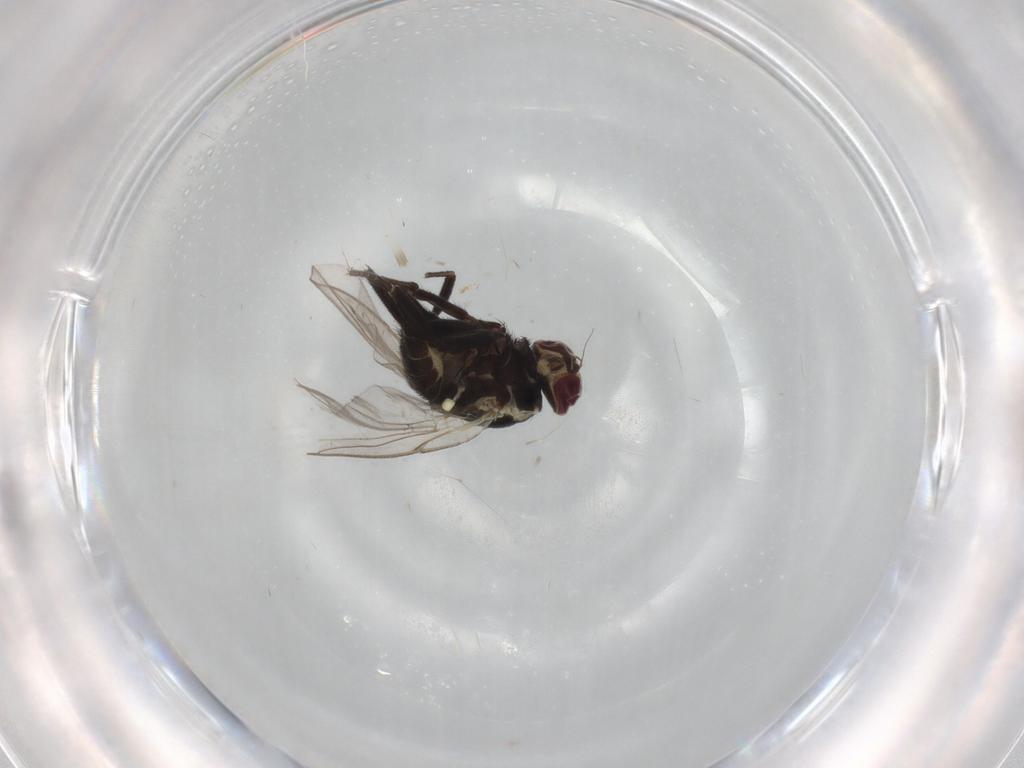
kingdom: Animalia
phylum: Arthropoda
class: Insecta
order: Diptera
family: Agromyzidae
